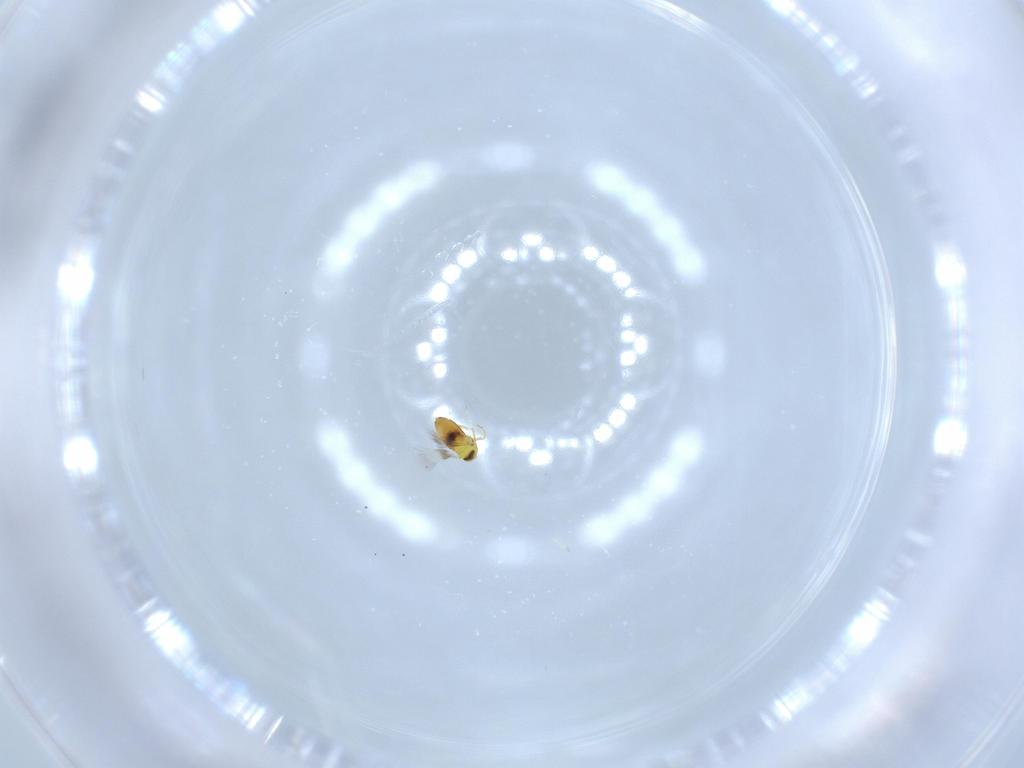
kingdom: Animalia
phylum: Arthropoda
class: Insecta
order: Hymenoptera
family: Signiphoridae
